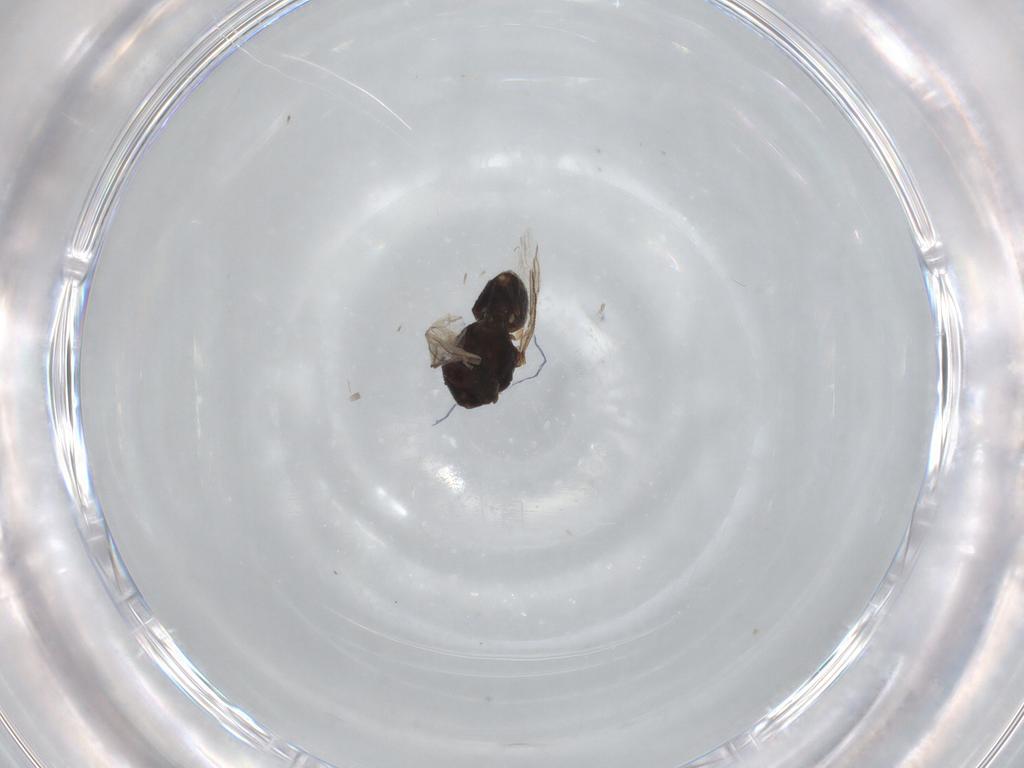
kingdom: Animalia
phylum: Arthropoda
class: Insecta
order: Diptera
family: Chloropidae
